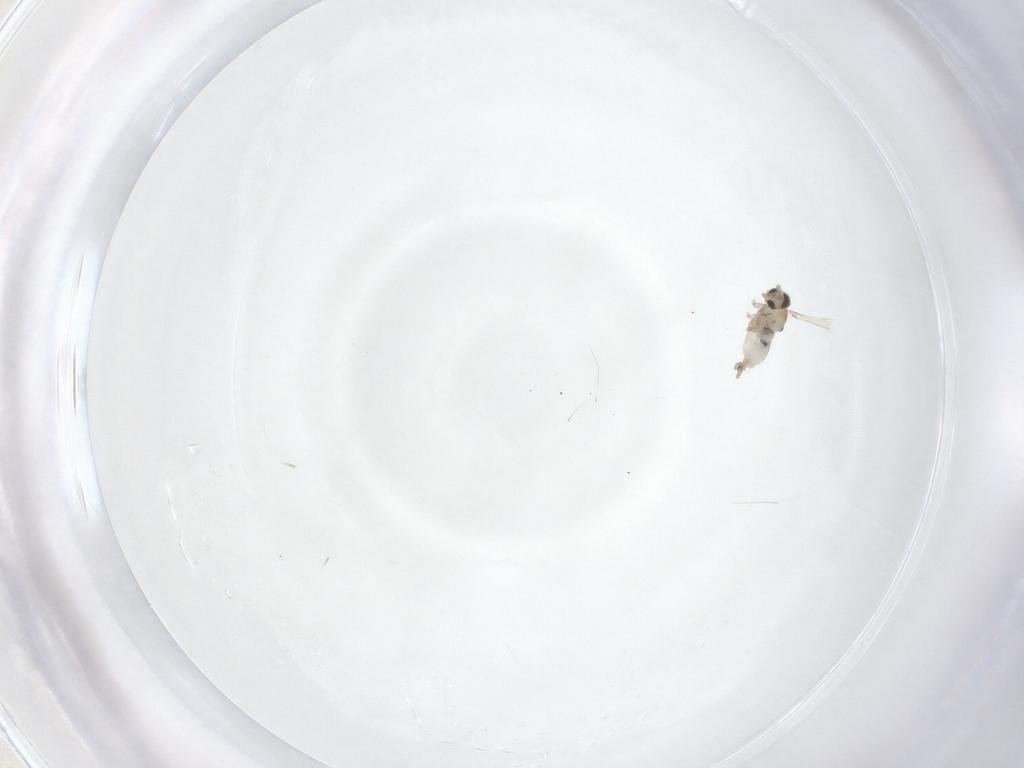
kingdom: Animalia
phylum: Arthropoda
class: Insecta
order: Diptera
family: Cecidomyiidae
